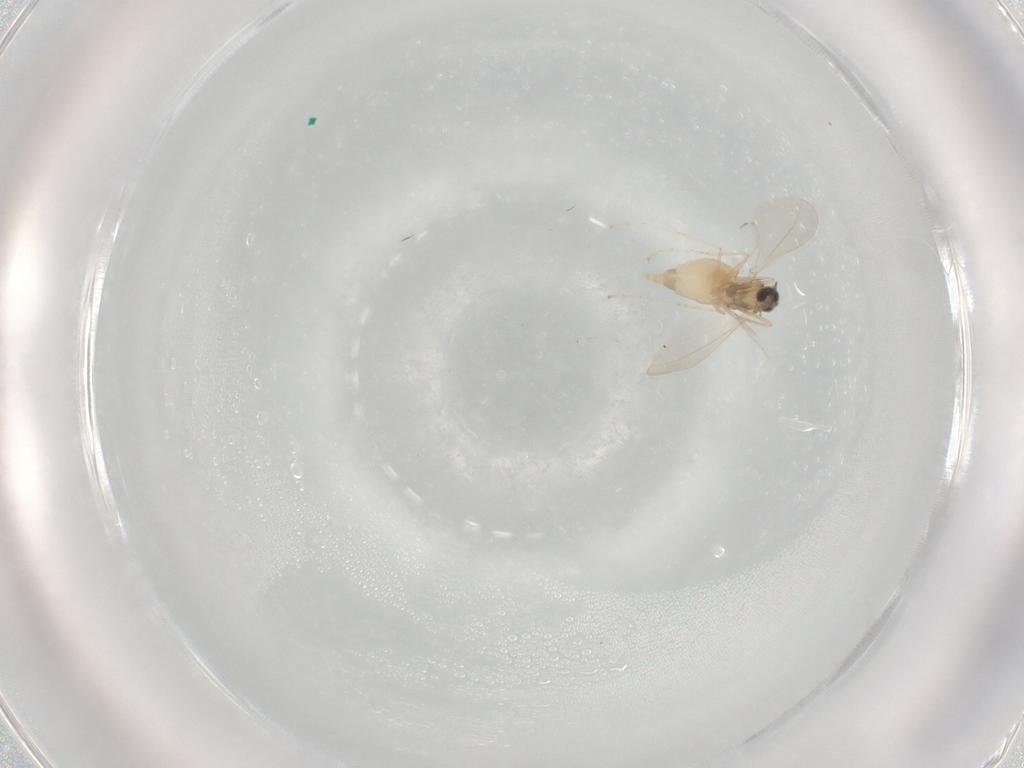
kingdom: Animalia
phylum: Arthropoda
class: Insecta
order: Diptera
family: Cecidomyiidae
